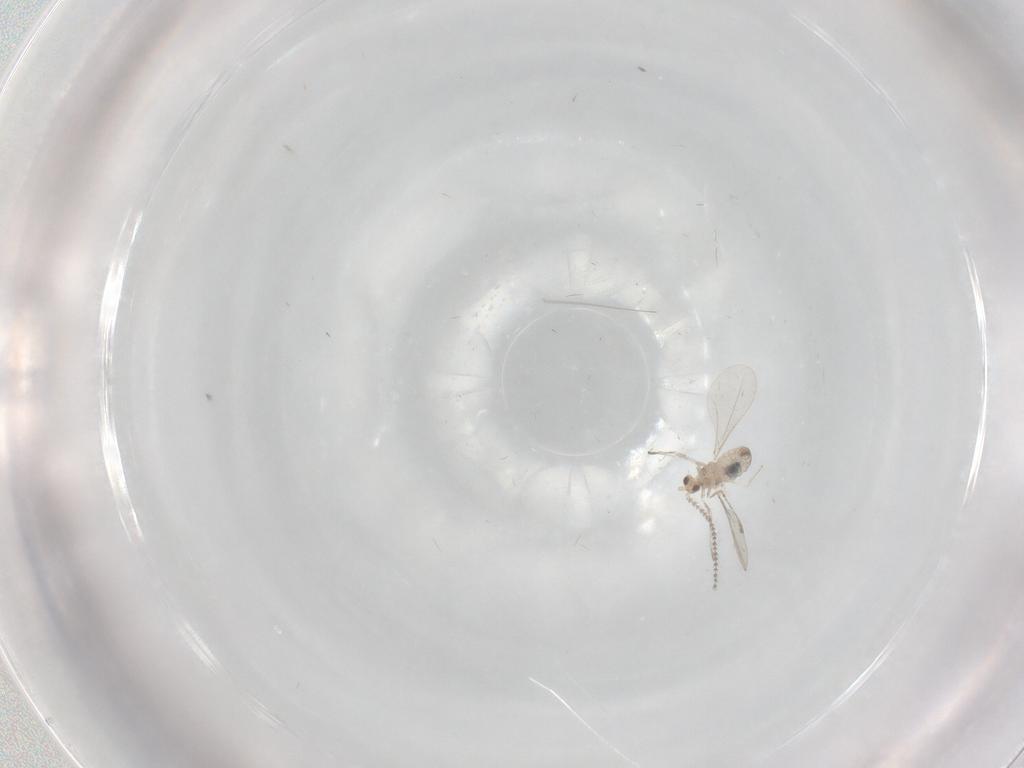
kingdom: Animalia
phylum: Arthropoda
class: Insecta
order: Diptera
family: Cecidomyiidae
